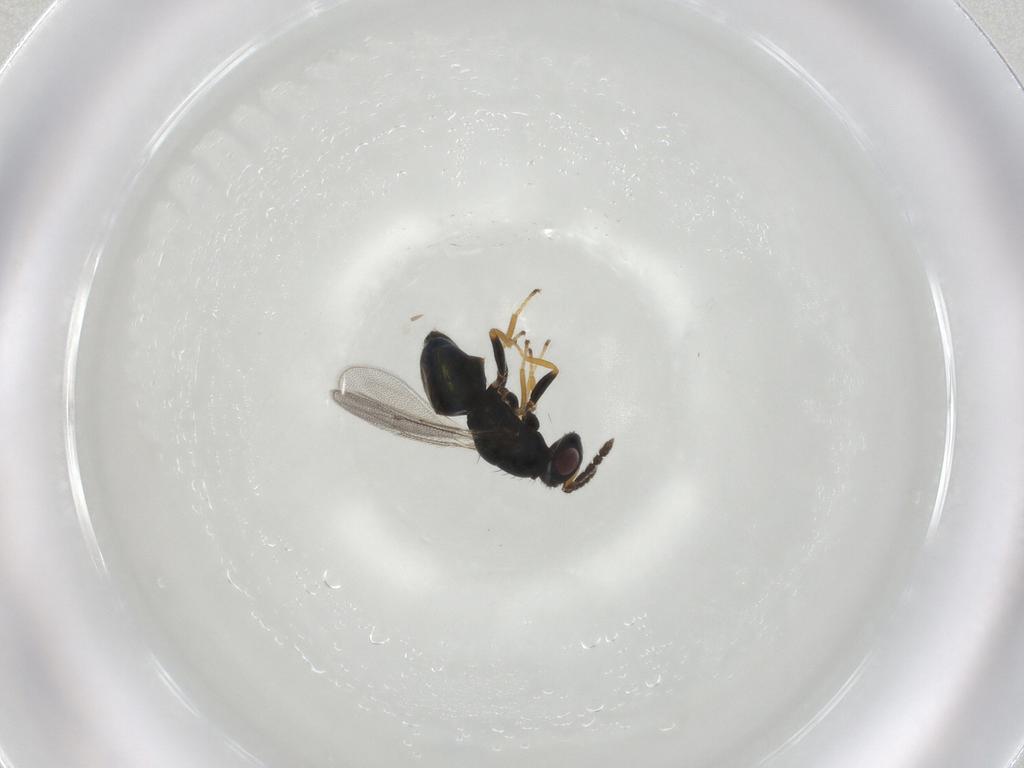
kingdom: Animalia
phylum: Arthropoda
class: Insecta
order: Hymenoptera
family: Eulophidae
